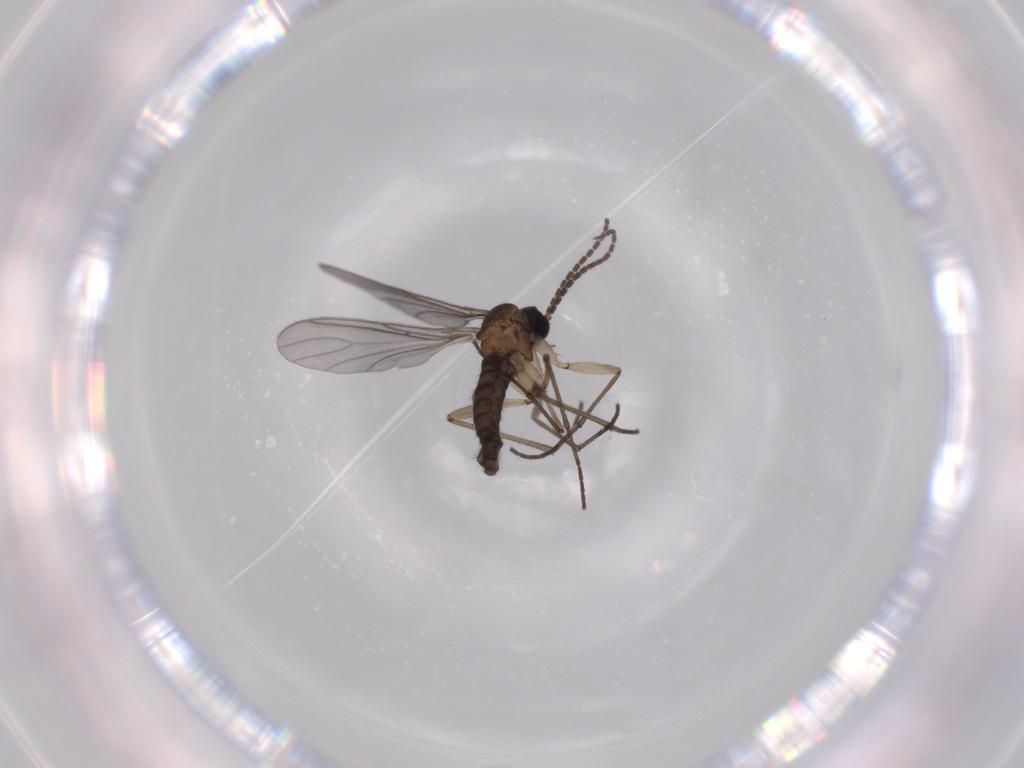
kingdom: Animalia
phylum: Arthropoda
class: Insecta
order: Diptera
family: Sciaridae
